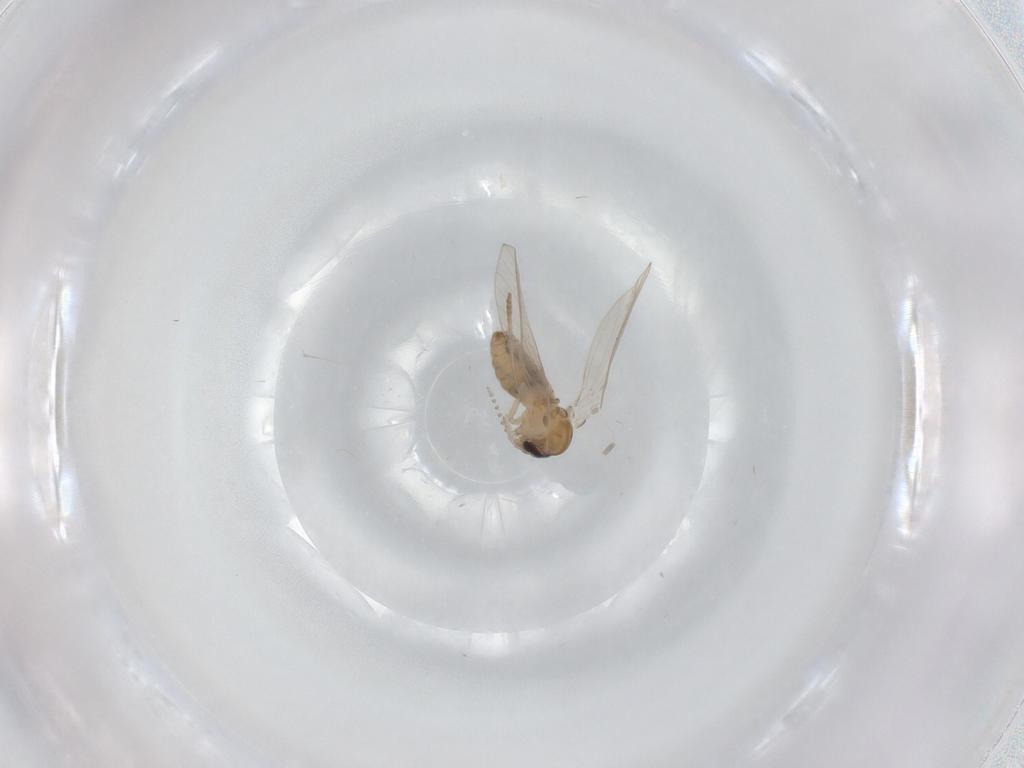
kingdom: Animalia
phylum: Arthropoda
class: Insecta
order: Diptera
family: Psychodidae
